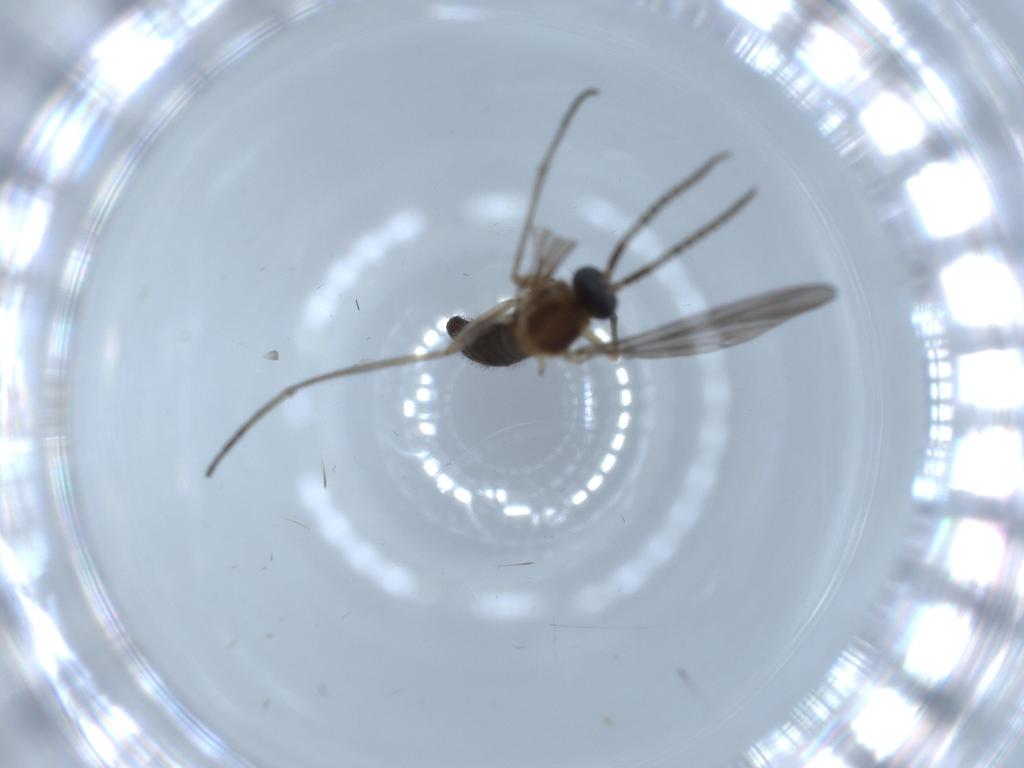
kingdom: Animalia
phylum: Arthropoda
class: Insecta
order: Diptera
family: Sciaridae
